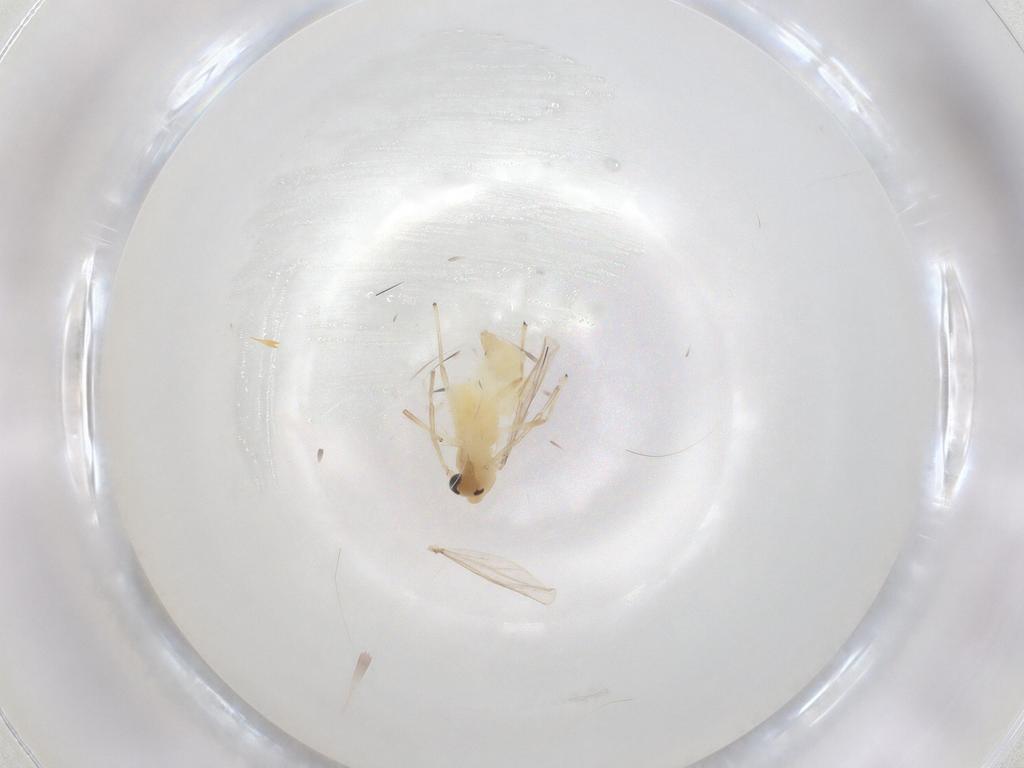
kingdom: Animalia
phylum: Arthropoda
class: Insecta
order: Diptera
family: Chironomidae
